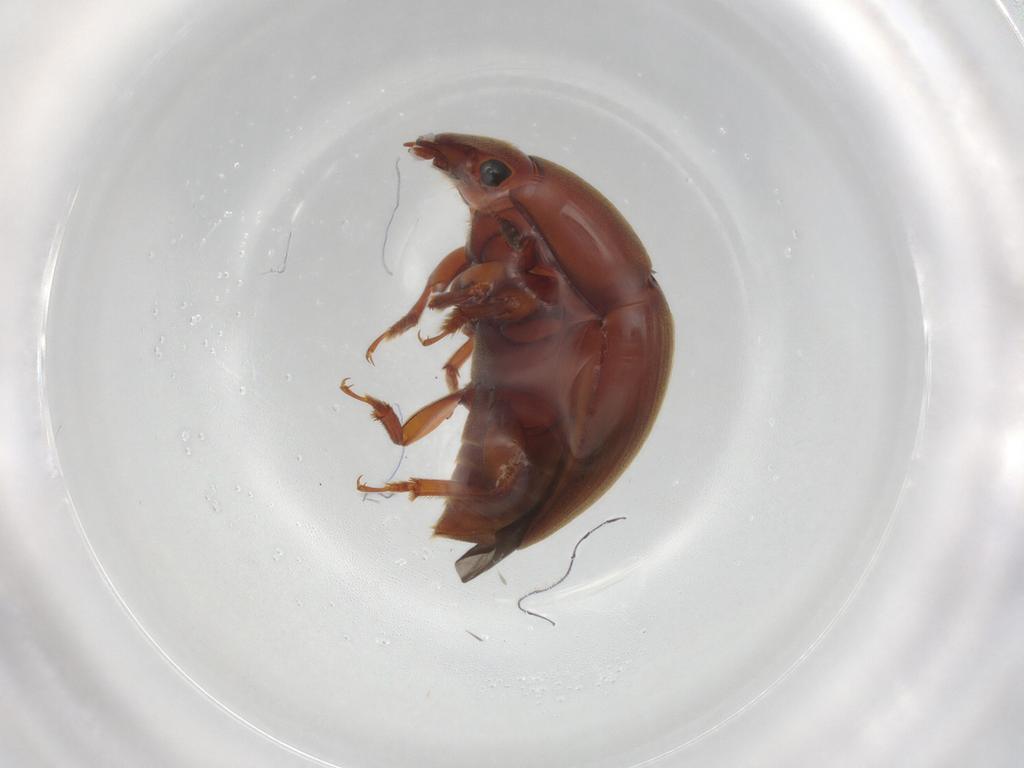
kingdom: Animalia
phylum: Arthropoda
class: Insecta
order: Coleoptera
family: Nitidulidae
